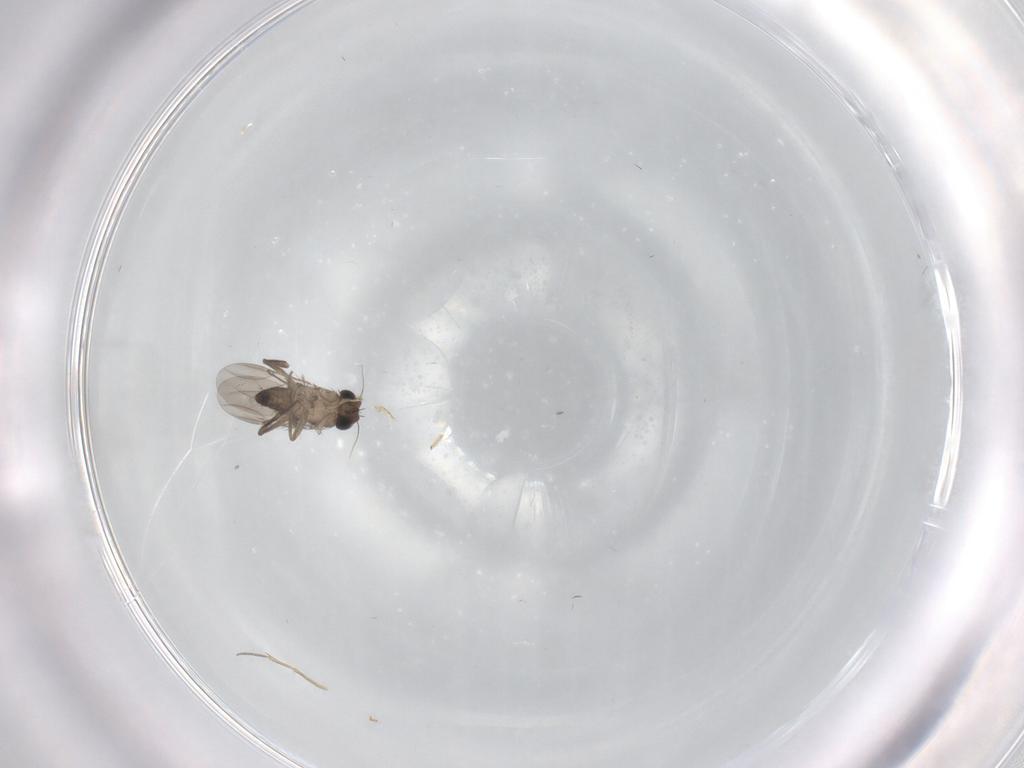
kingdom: Animalia
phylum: Arthropoda
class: Insecta
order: Diptera
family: Phoridae
